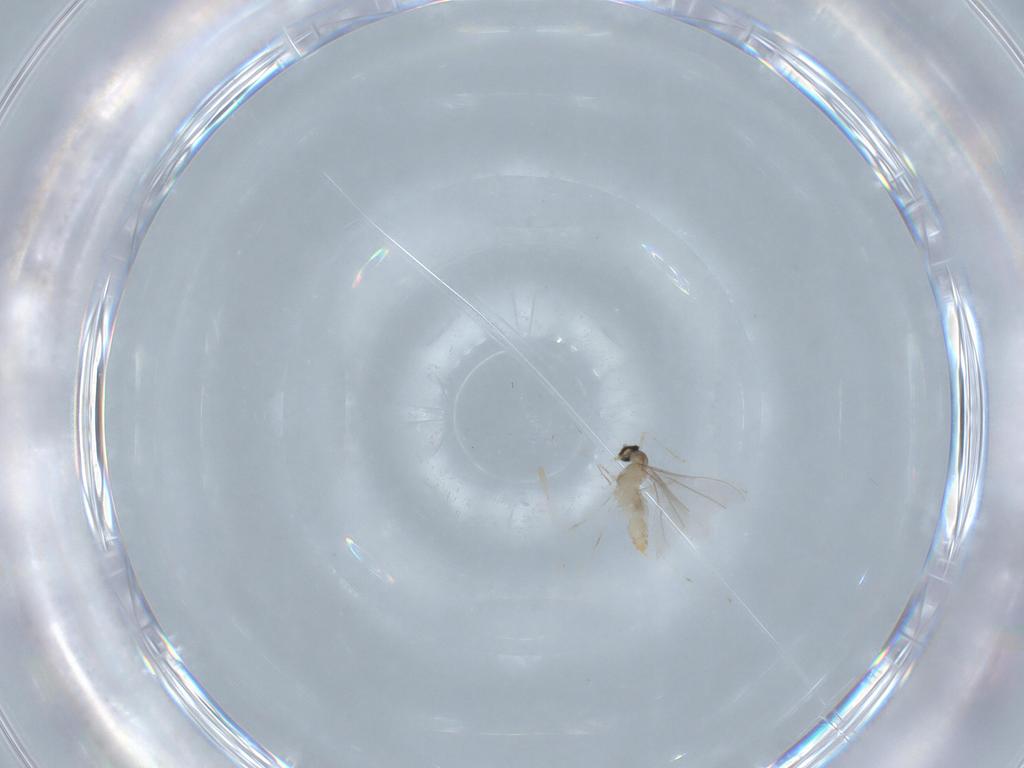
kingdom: Animalia
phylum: Arthropoda
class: Insecta
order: Diptera
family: Cecidomyiidae
